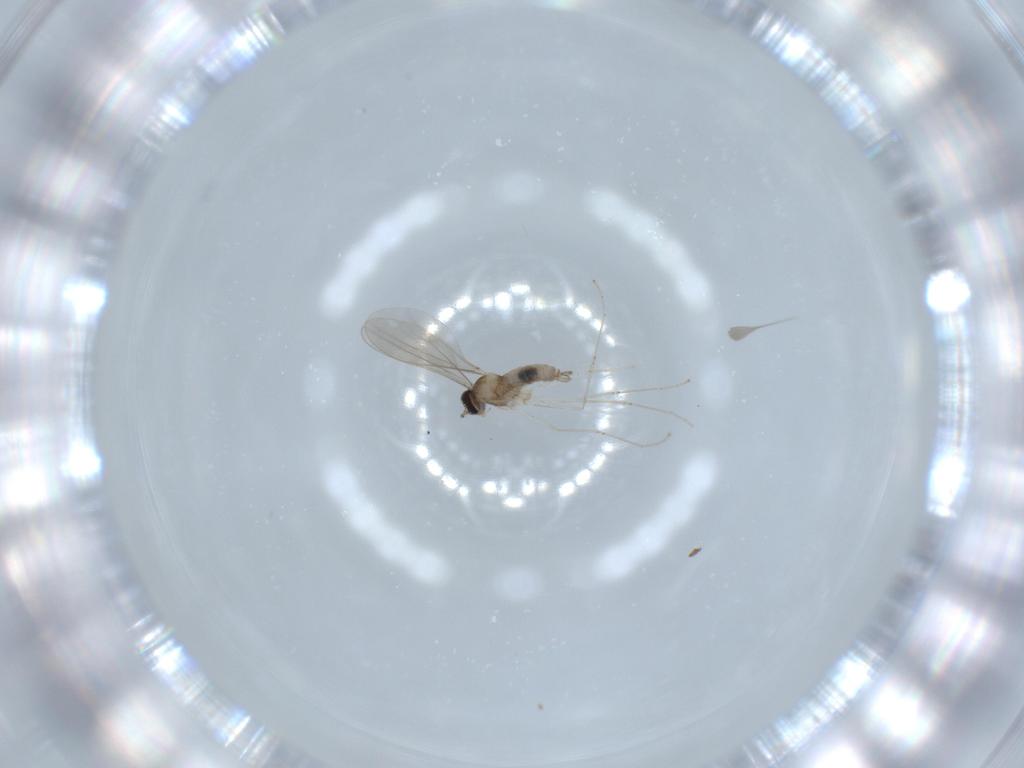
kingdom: Animalia
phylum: Arthropoda
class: Insecta
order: Diptera
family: Cecidomyiidae
